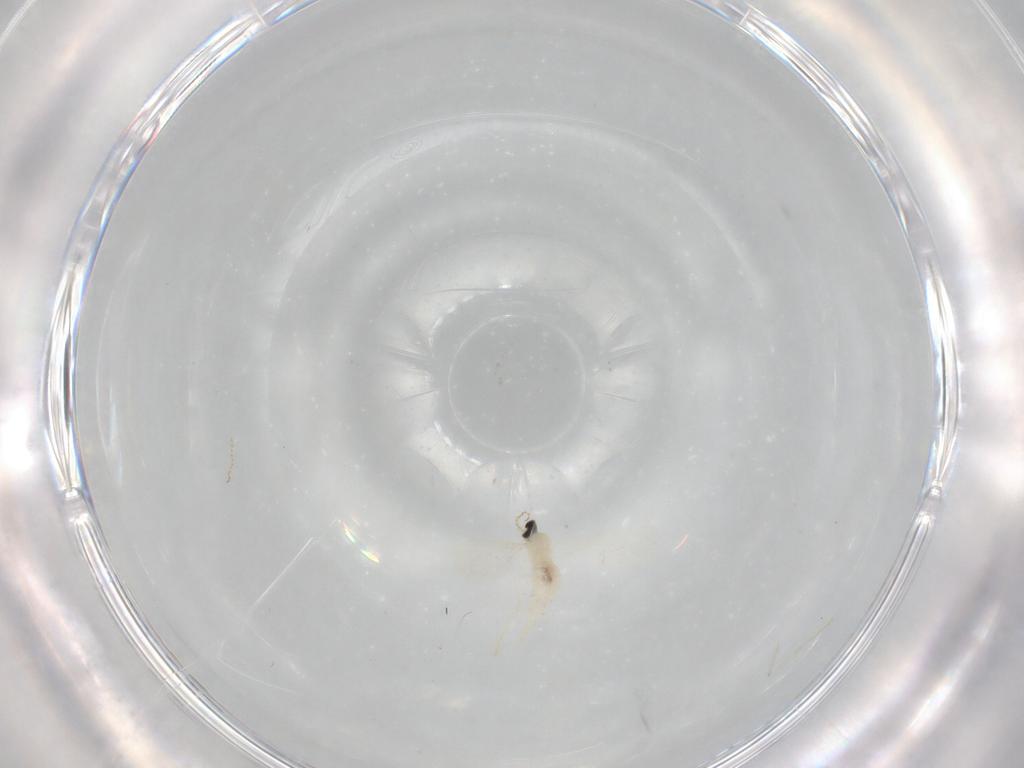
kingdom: Animalia
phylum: Arthropoda
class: Insecta
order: Diptera
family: Cecidomyiidae
